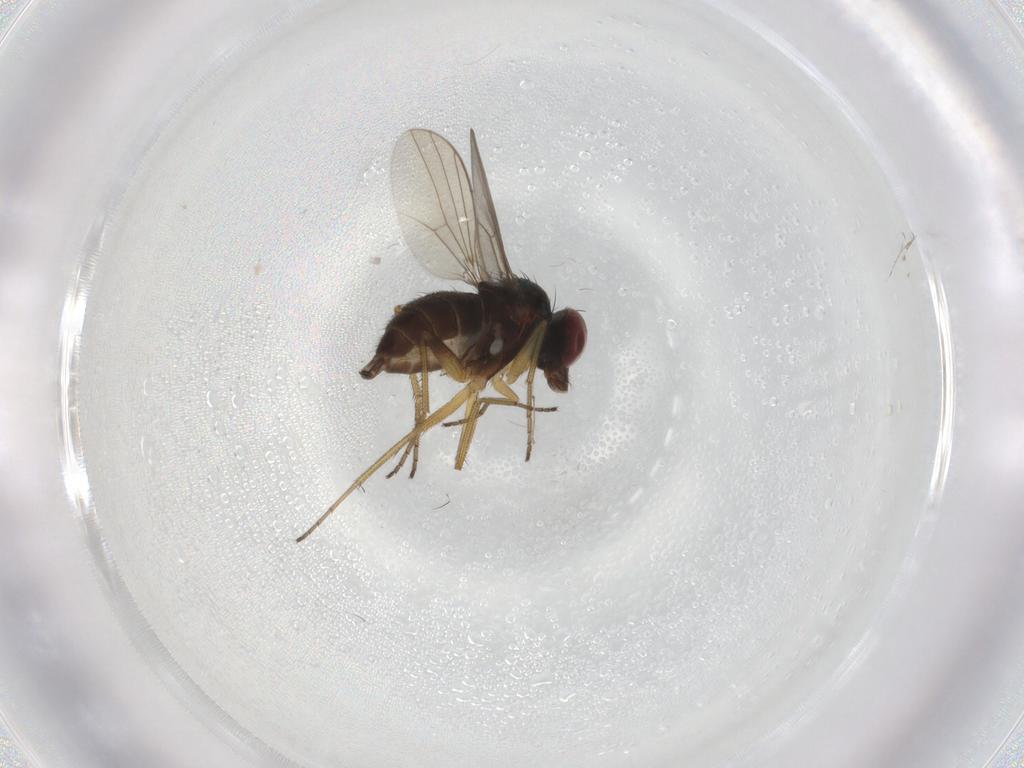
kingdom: Animalia
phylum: Arthropoda
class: Insecta
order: Diptera
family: Dolichopodidae
